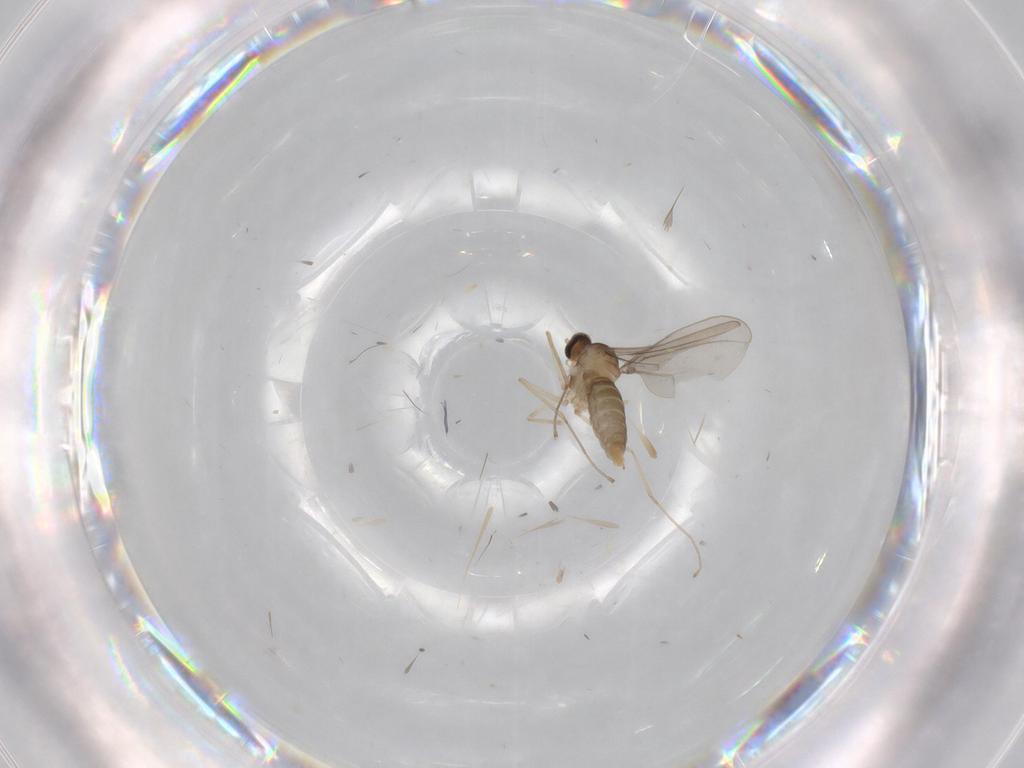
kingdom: Animalia
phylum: Arthropoda
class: Insecta
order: Diptera
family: Cecidomyiidae
